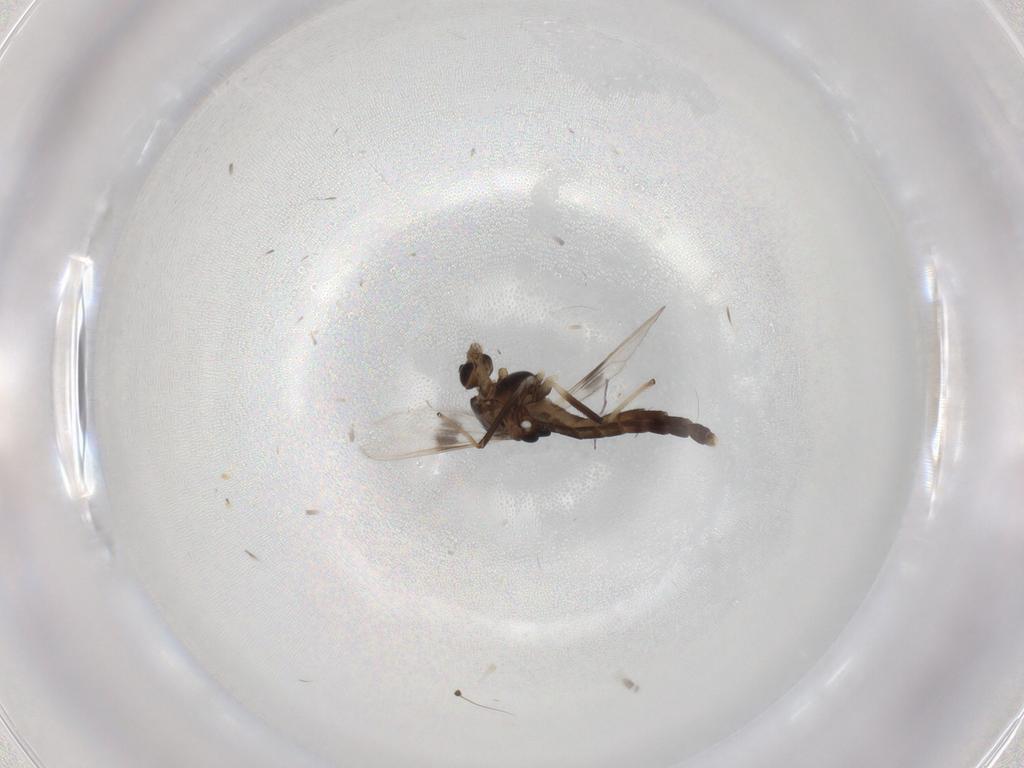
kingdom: Animalia
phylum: Arthropoda
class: Insecta
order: Diptera
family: Chironomidae
